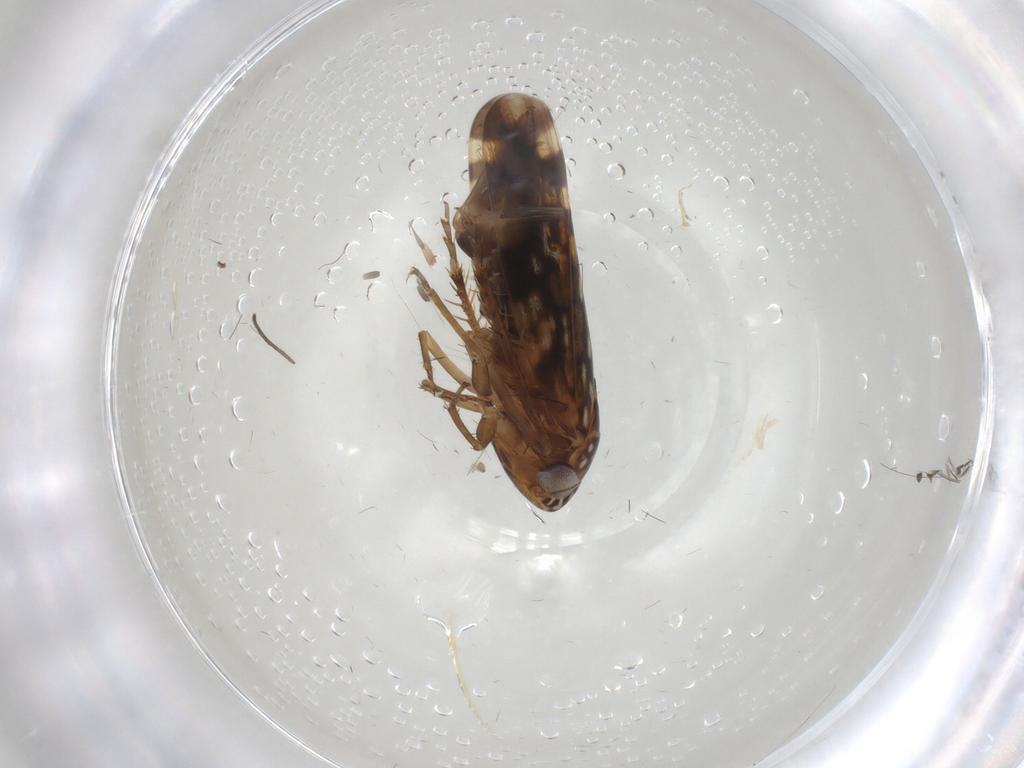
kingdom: Animalia
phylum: Arthropoda
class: Insecta
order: Hemiptera
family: Cicadellidae
